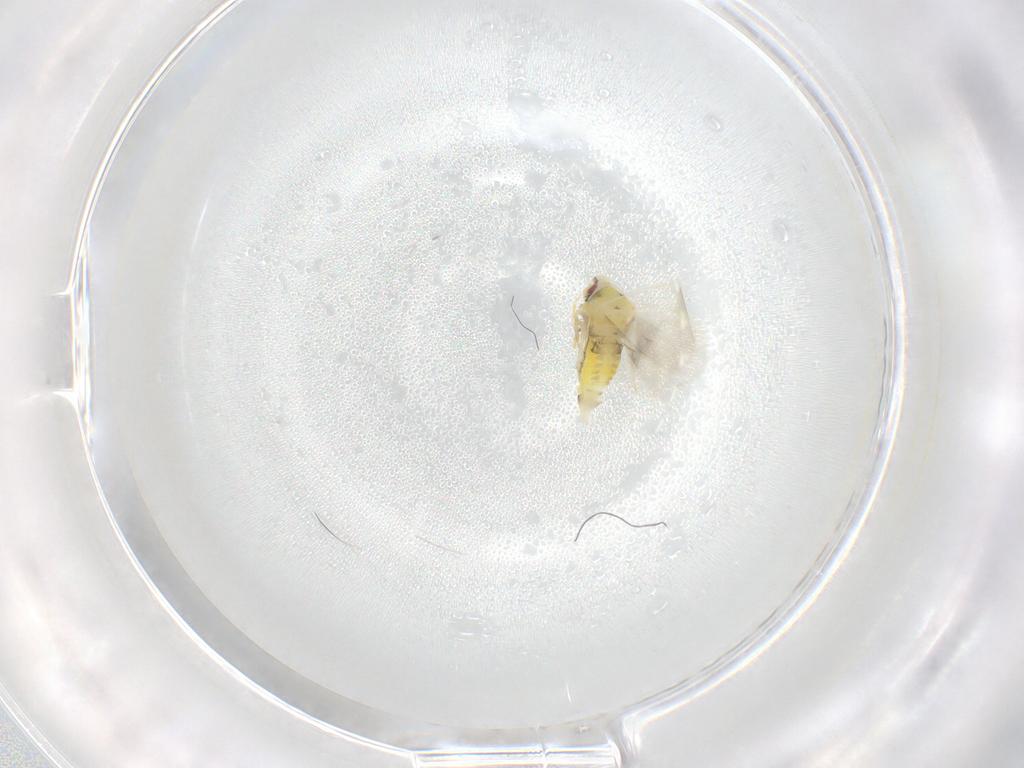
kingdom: Animalia
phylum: Arthropoda
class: Insecta
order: Hemiptera
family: Aleyrodidae
